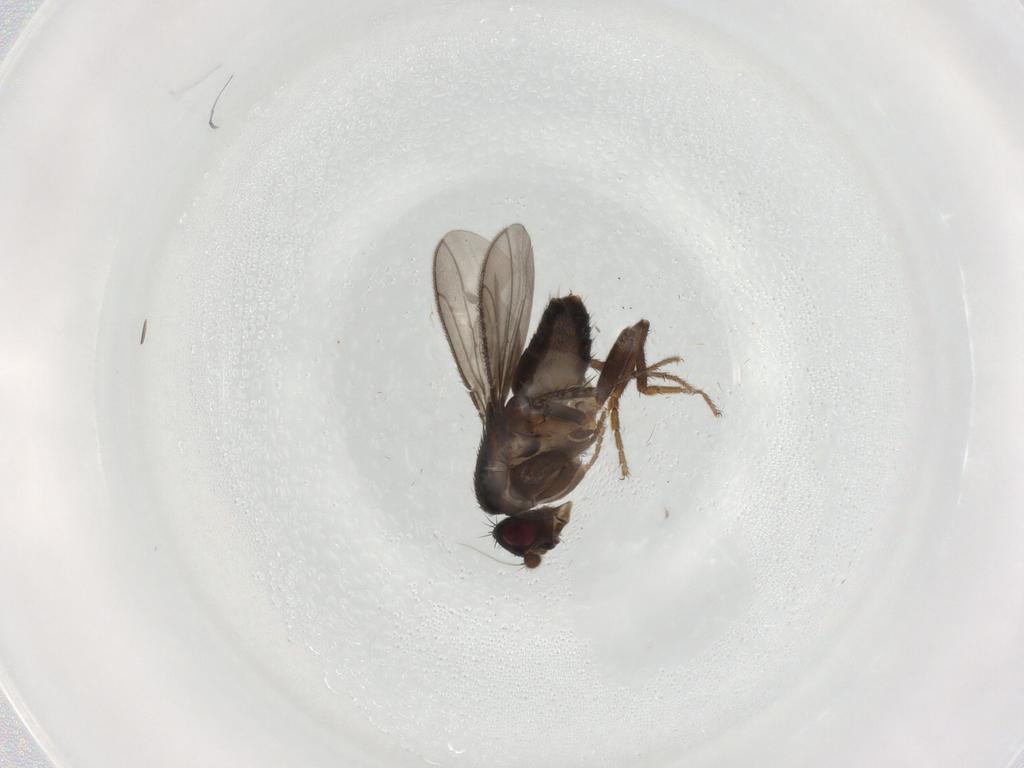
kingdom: Animalia
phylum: Arthropoda
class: Insecta
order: Diptera
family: Sphaeroceridae
